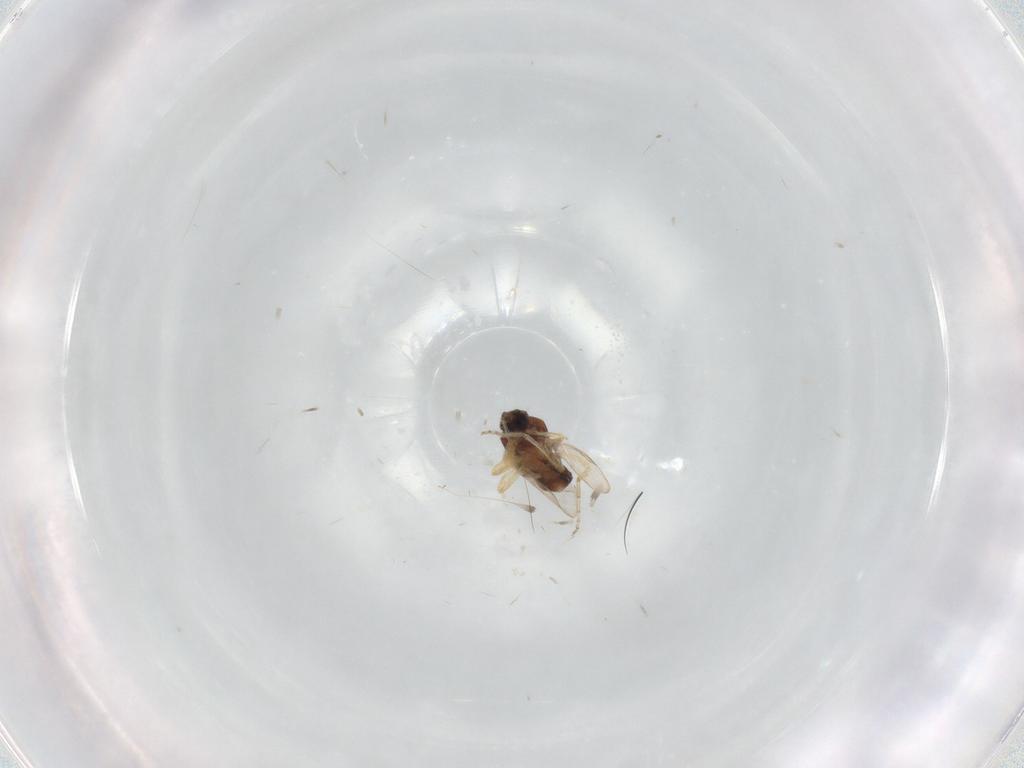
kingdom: Animalia
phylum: Arthropoda
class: Insecta
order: Diptera
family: Ceratopogonidae
